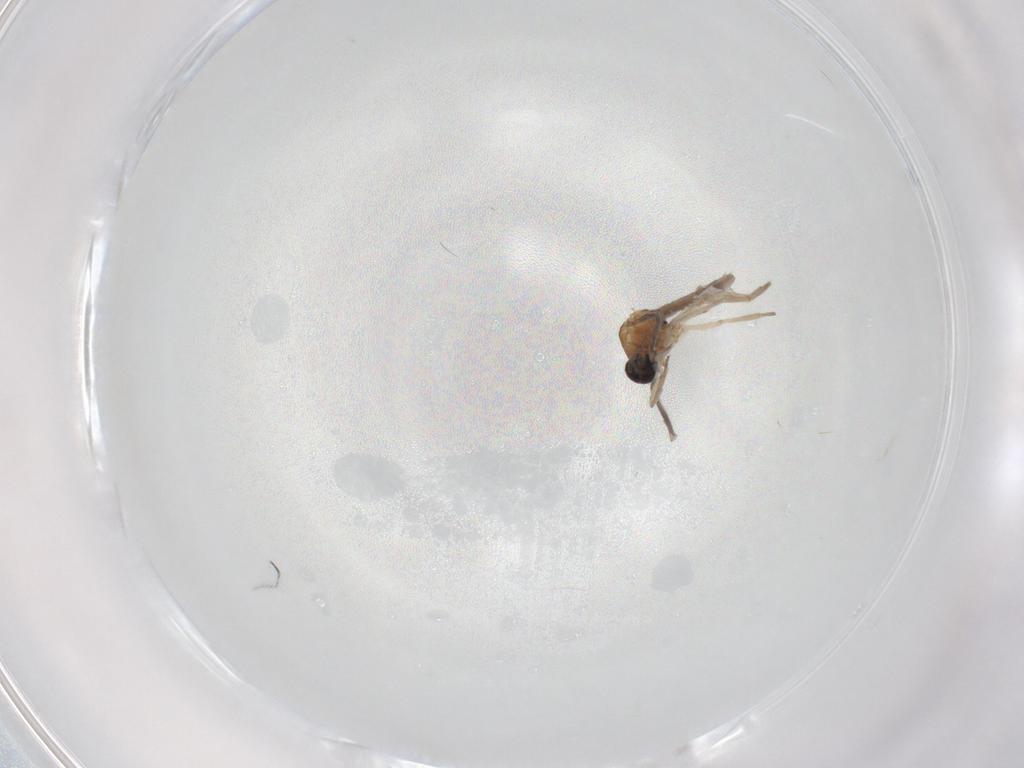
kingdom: Animalia
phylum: Arthropoda
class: Insecta
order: Diptera
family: Ceratopogonidae
